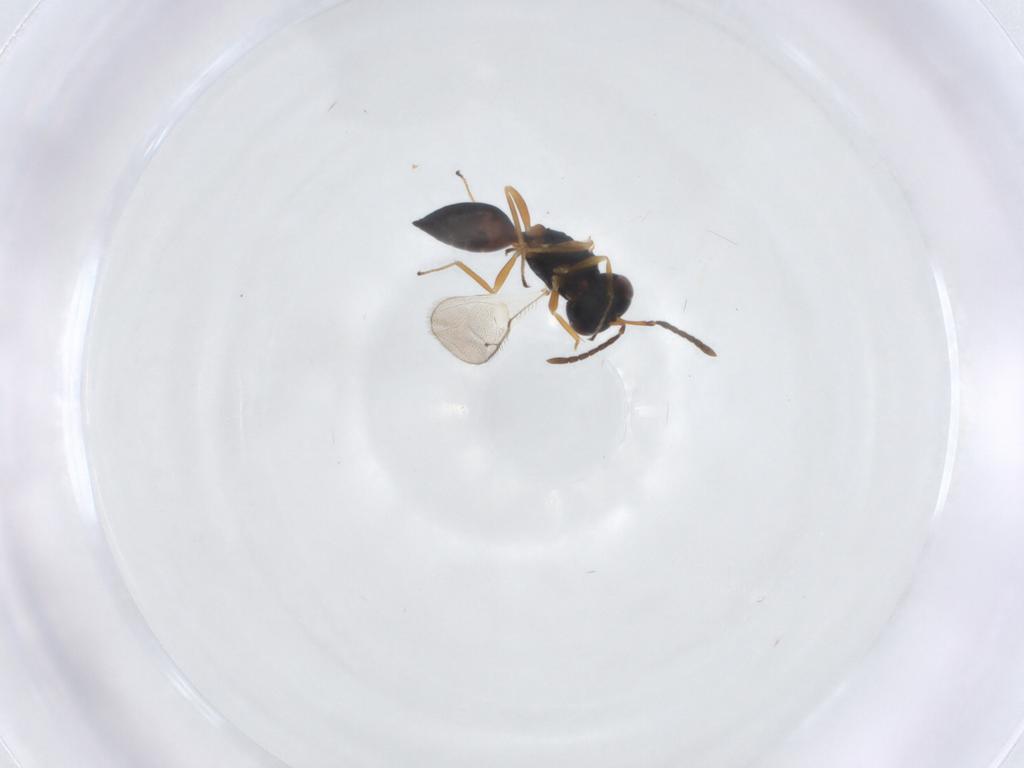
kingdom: Animalia
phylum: Arthropoda
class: Insecta
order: Hymenoptera
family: Pteromalidae
